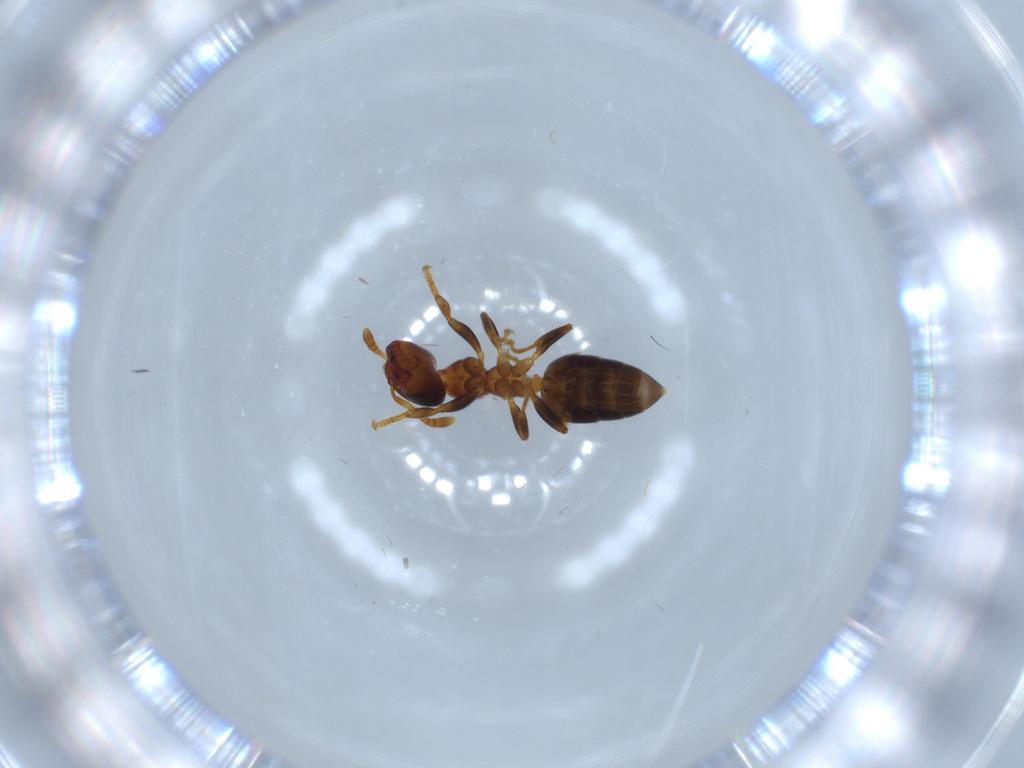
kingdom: Animalia
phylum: Arthropoda
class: Insecta
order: Hymenoptera
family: Formicidae
